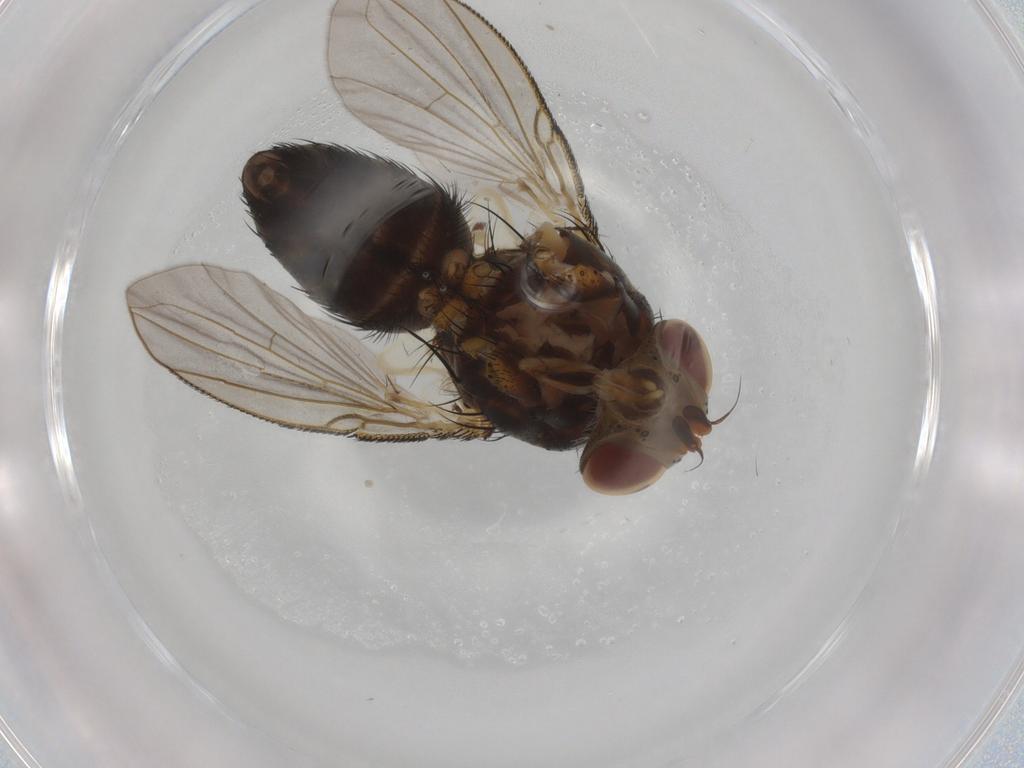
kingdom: Animalia
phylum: Arthropoda
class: Insecta
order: Diptera
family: Tachinidae
